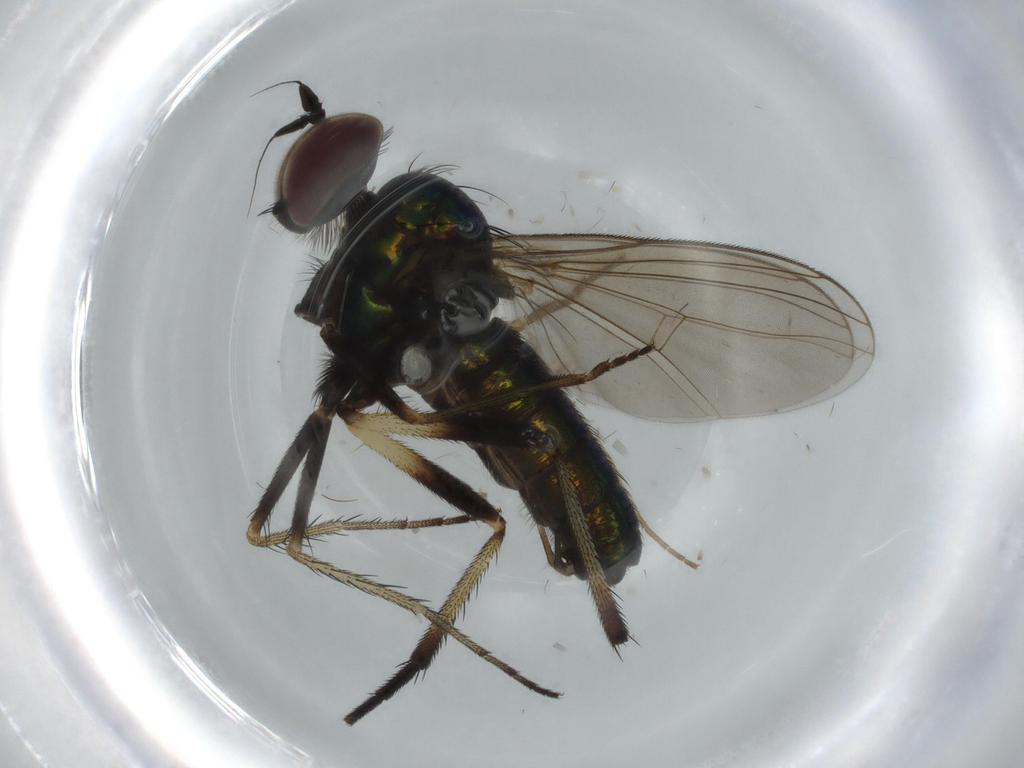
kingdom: Animalia
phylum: Arthropoda
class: Insecta
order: Diptera
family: Dolichopodidae
